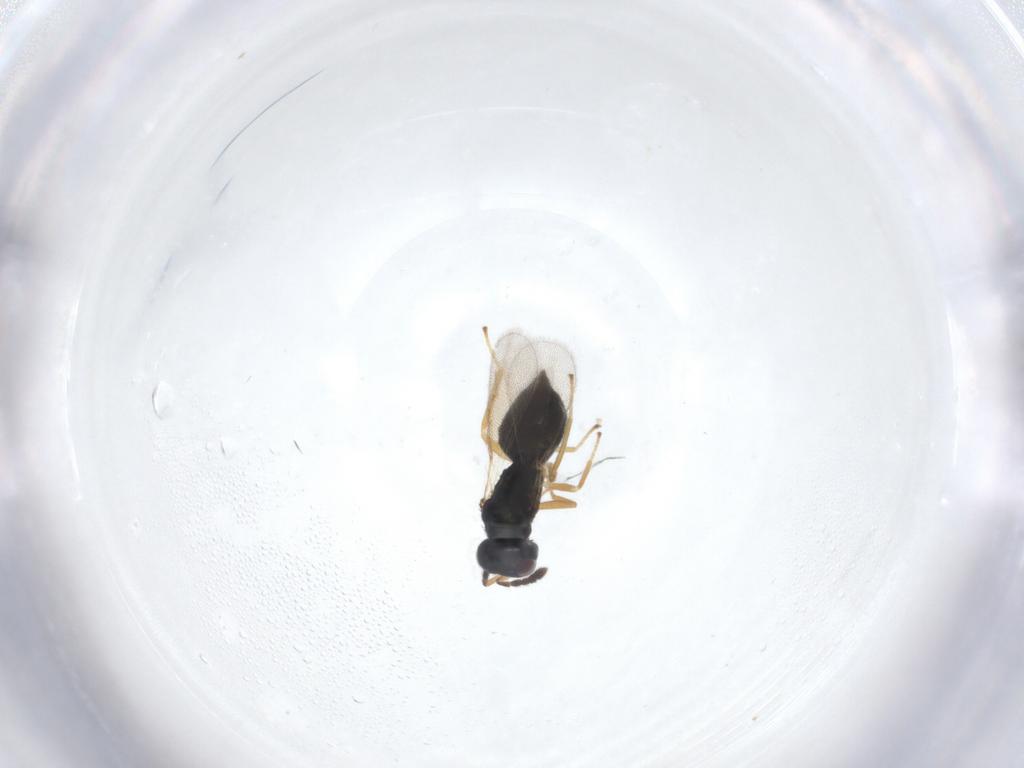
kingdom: Animalia
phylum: Arthropoda
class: Insecta
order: Hymenoptera
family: Eulophidae
